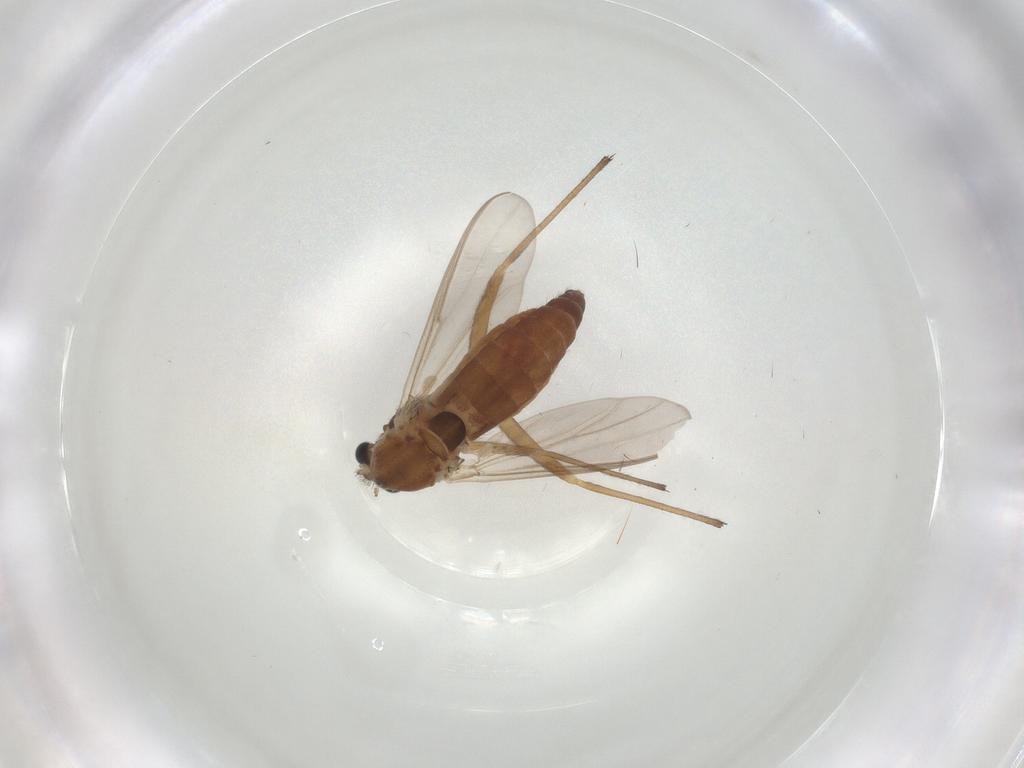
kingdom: Animalia
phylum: Arthropoda
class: Insecta
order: Diptera
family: Chironomidae
